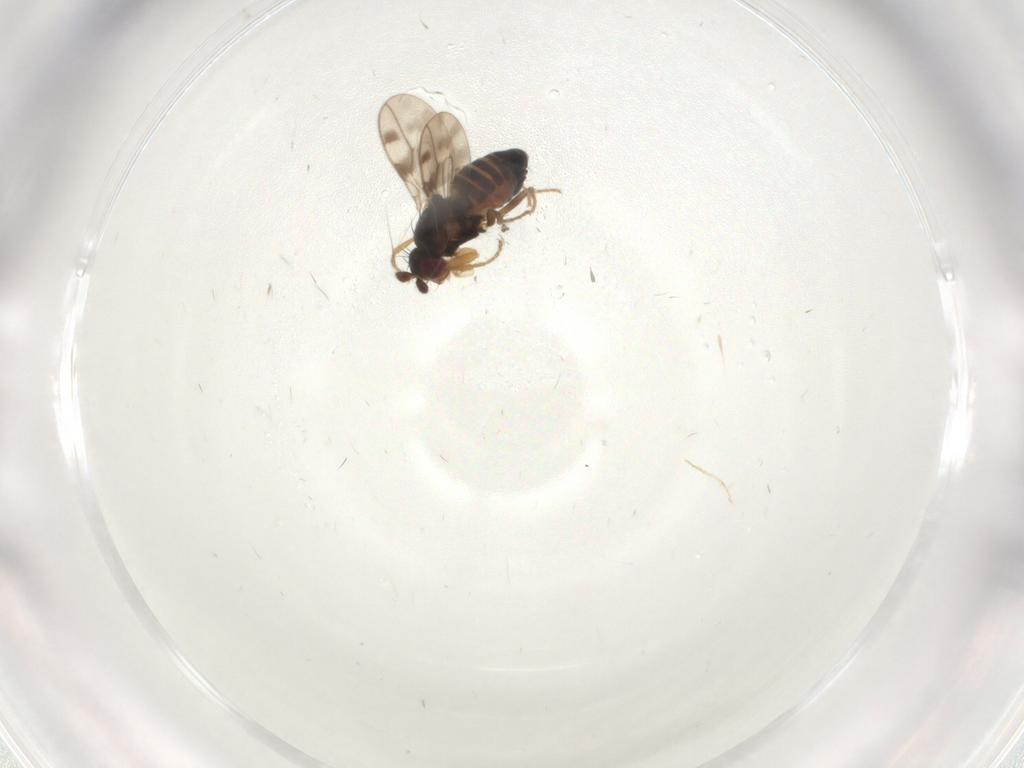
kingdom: Animalia
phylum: Arthropoda
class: Insecta
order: Diptera
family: Sphaeroceridae
